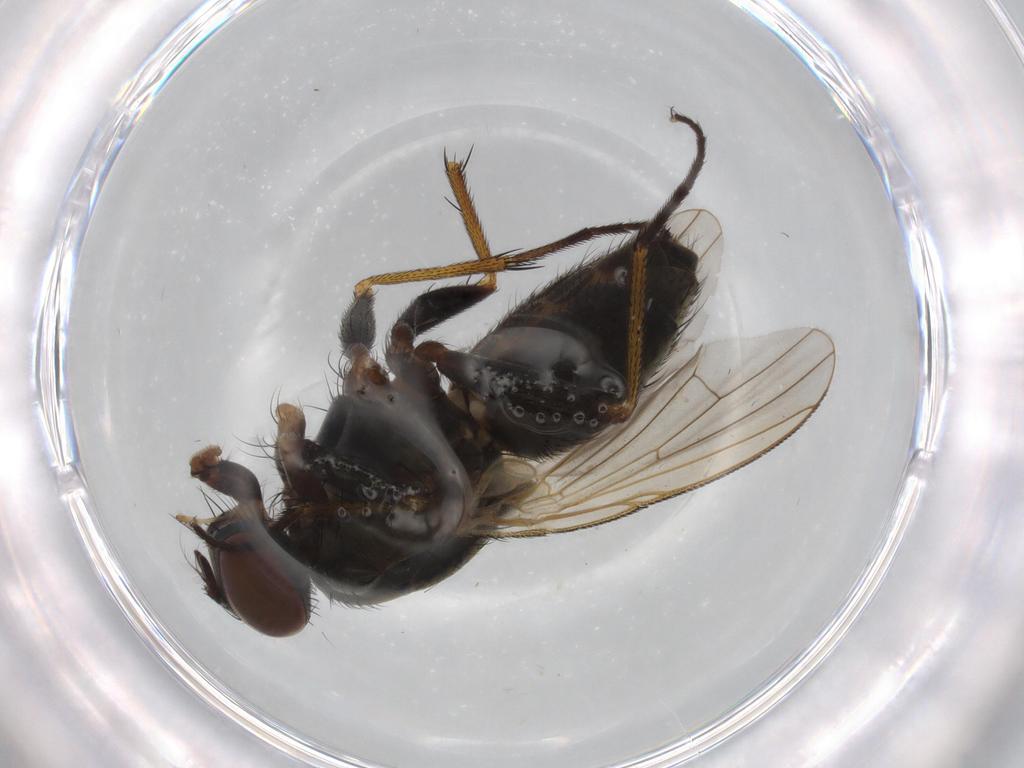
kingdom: Animalia
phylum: Arthropoda
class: Insecta
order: Diptera
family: Muscidae
